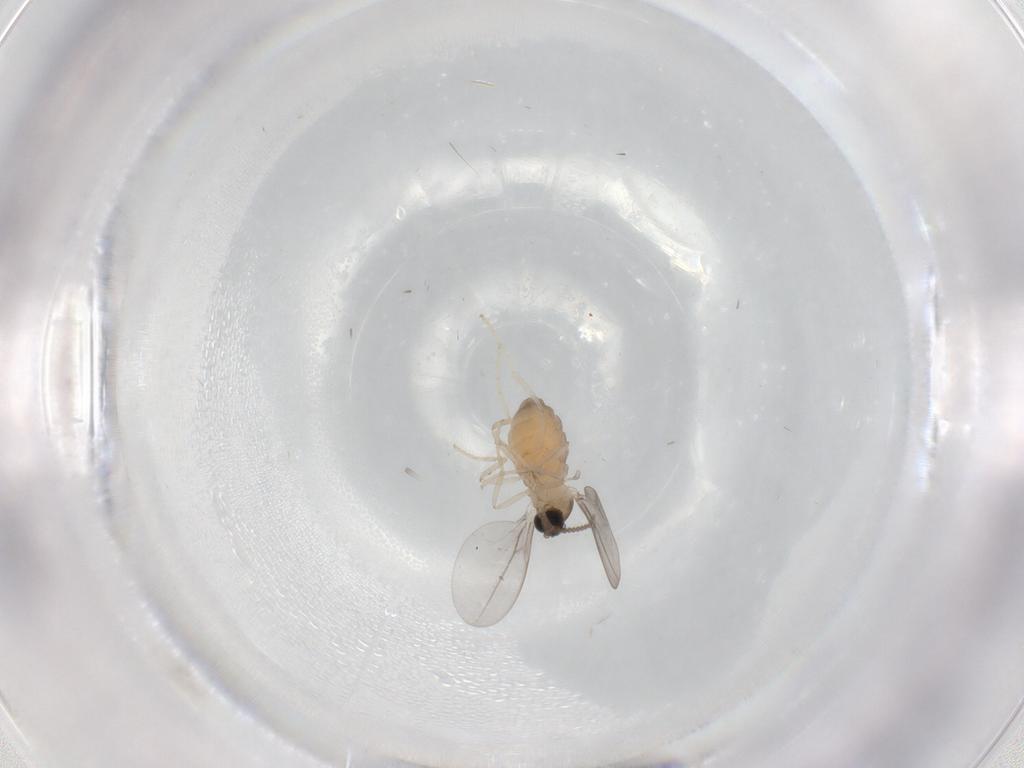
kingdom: Animalia
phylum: Arthropoda
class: Insecta
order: Diptera
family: Cecidomyiidae
